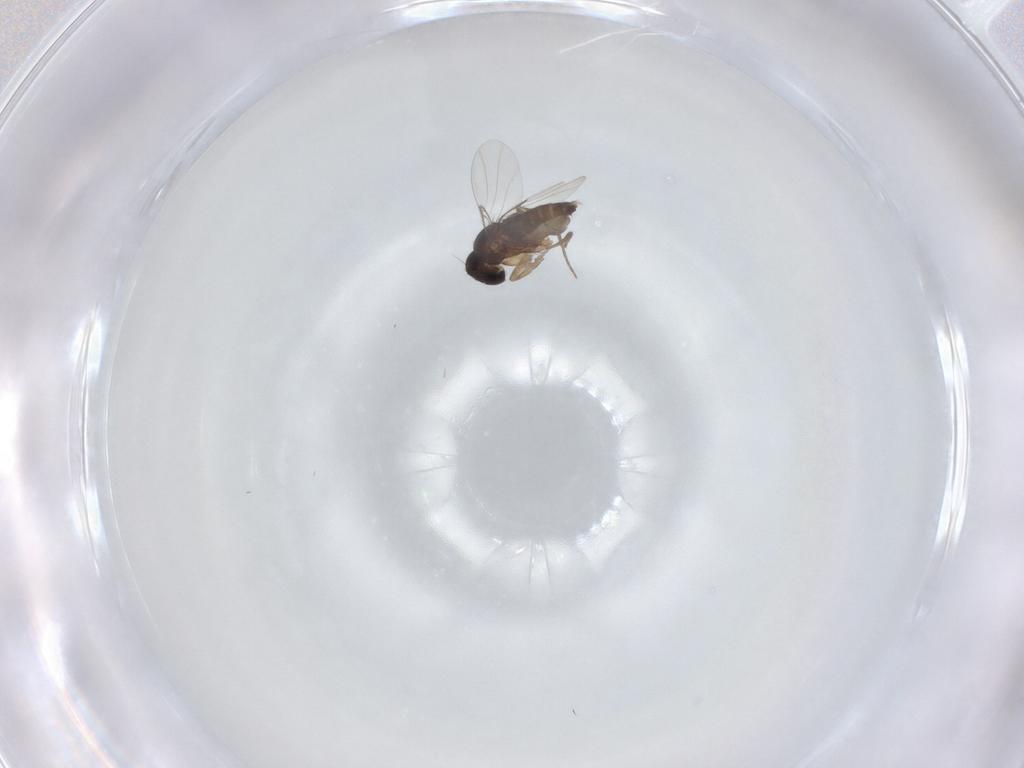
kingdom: Animalia
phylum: Arthropoda
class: Insecta
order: Diptera
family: Phoridae
